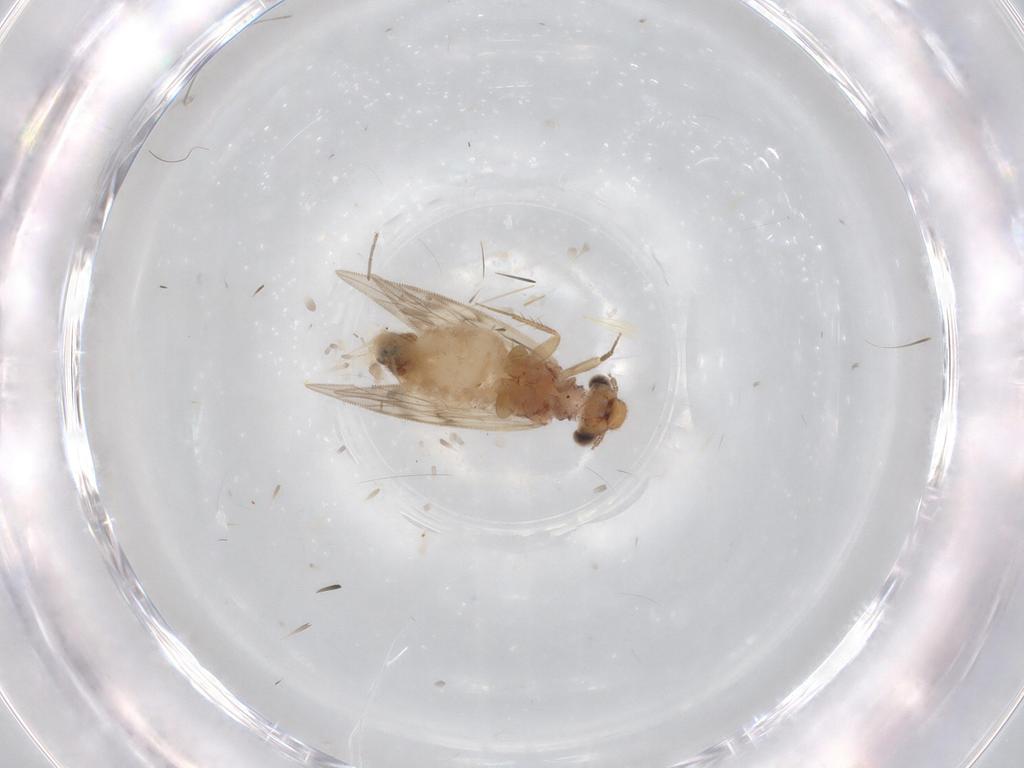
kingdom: Animalia
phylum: Arthropoda
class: Insecta
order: Psocodea
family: Lepidopsocidae
